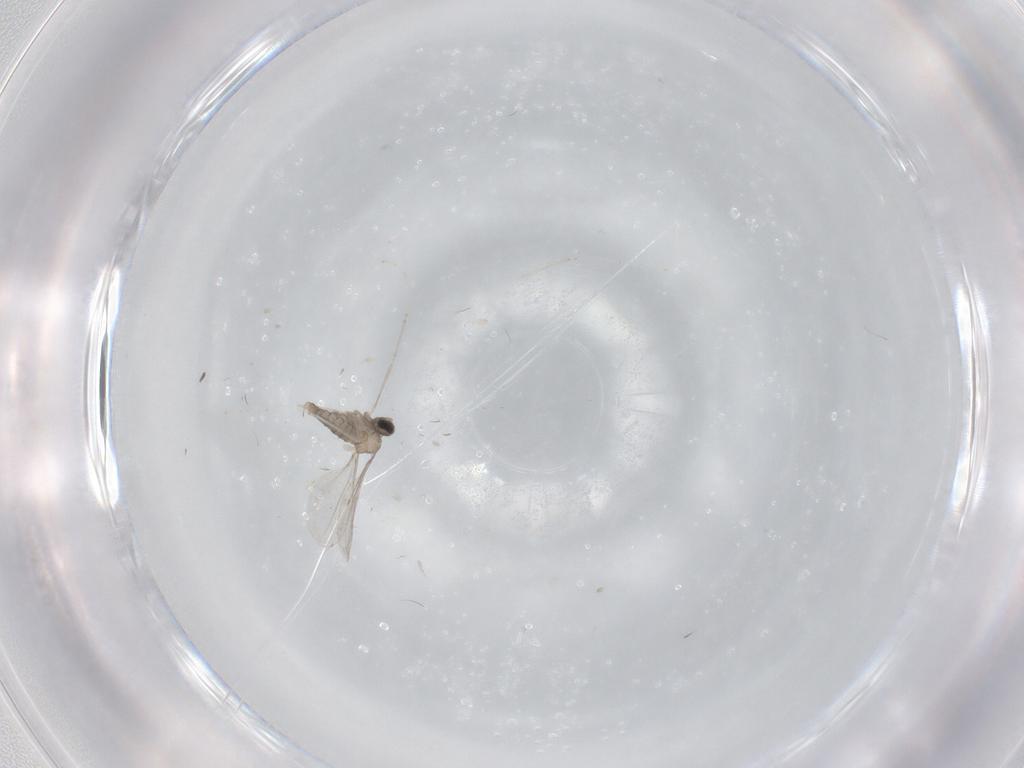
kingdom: Animalia
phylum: Arthropoda
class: Insecta
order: Diptera
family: Cecidomyiidae
